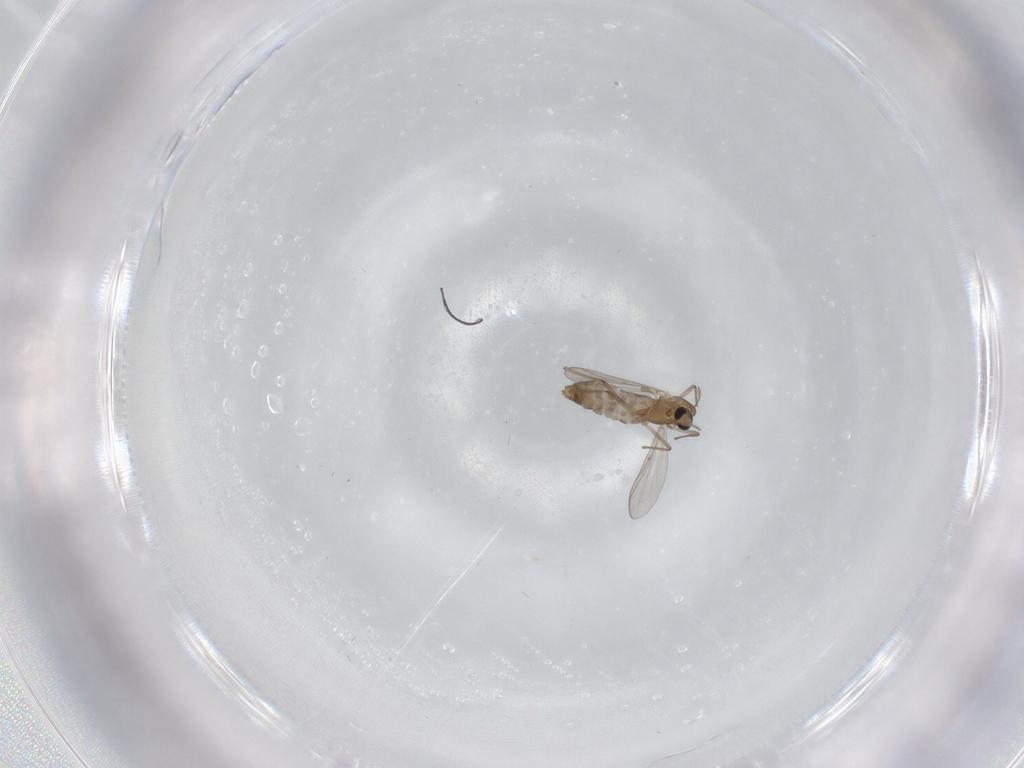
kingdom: Animalia
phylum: Arthropoda
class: Insecta
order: Diptera
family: Chironomidae
